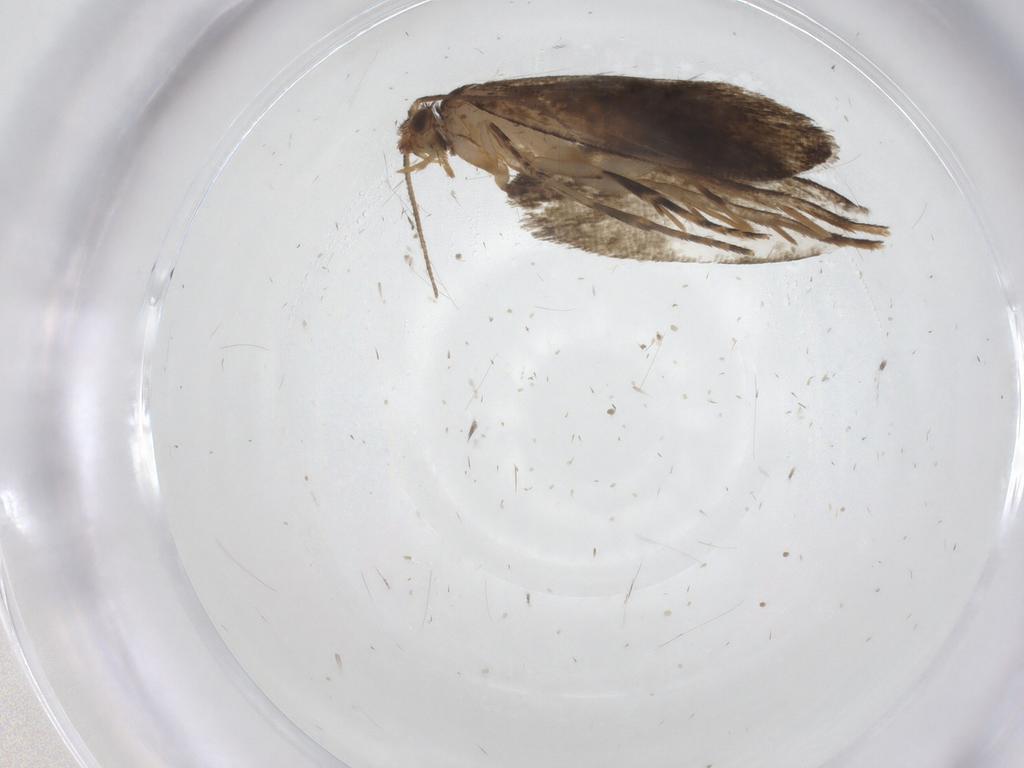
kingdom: Animalia
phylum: Arthropoda
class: Insecta
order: Lepidoptera
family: Crambidae
